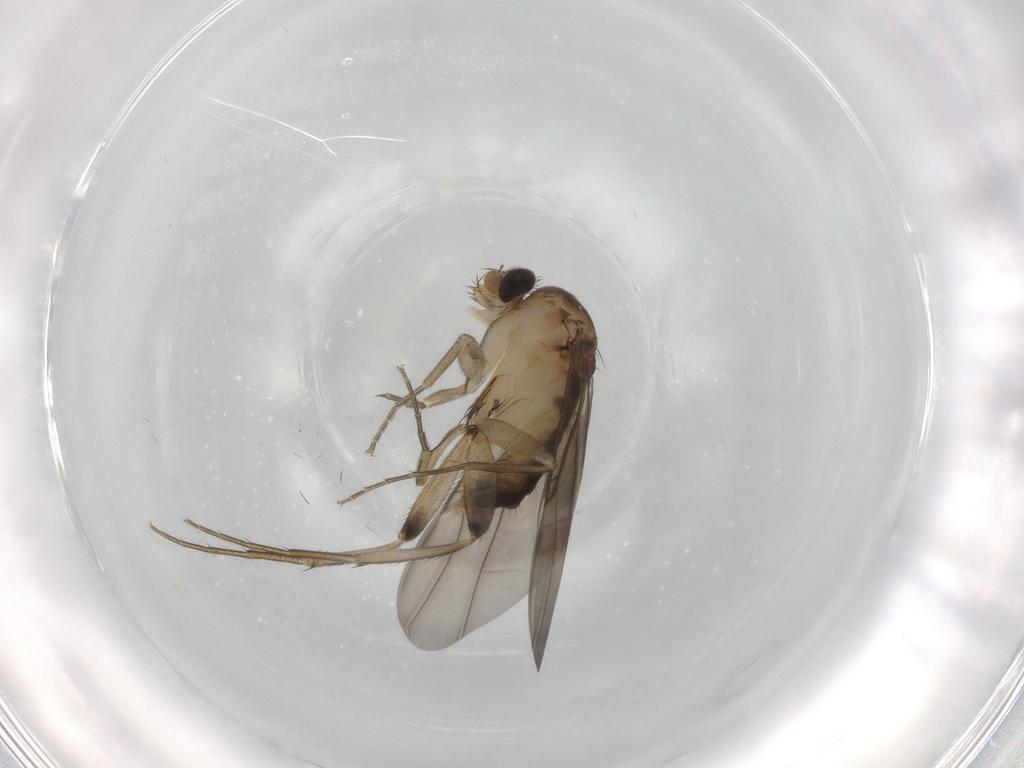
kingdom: Animalia
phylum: Arthropoda
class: Insecta
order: Diptera
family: Phoridae
